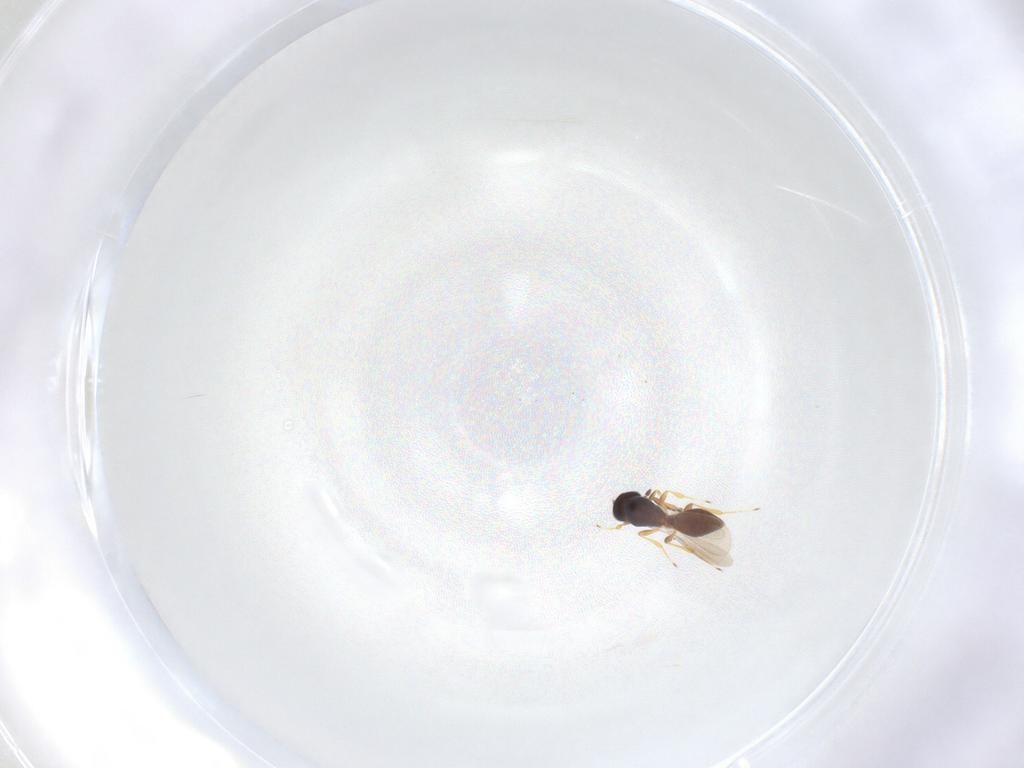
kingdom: Animalia
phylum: Arthropoda
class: Insecta
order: Hymenoptera
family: Platygastridae
